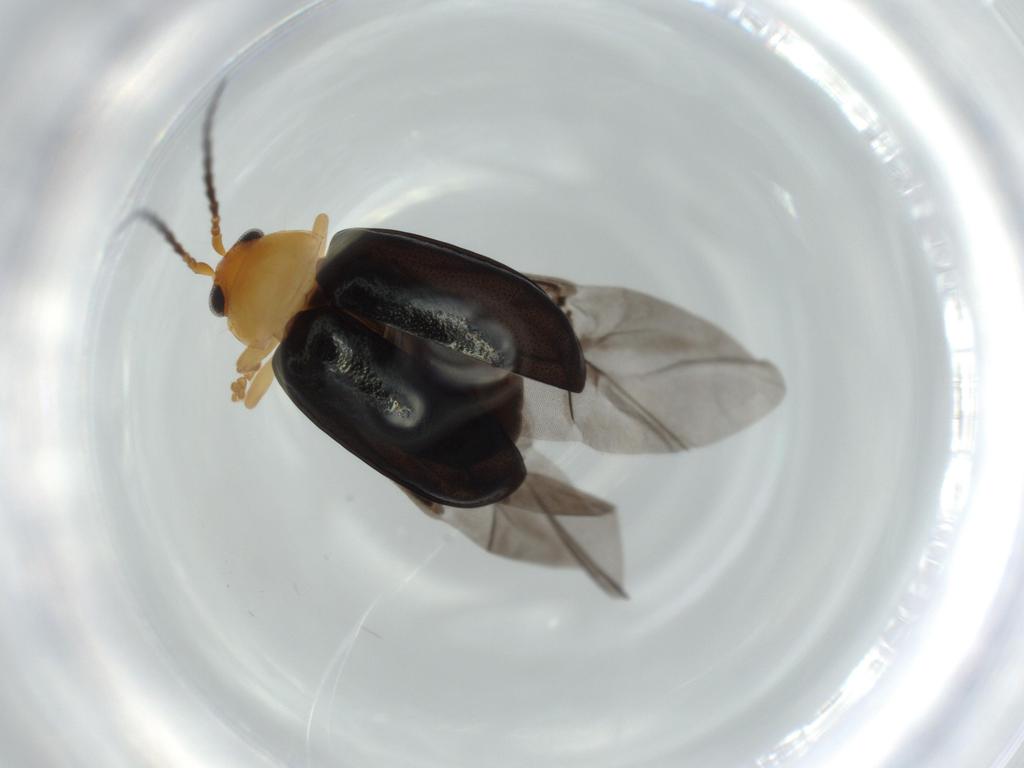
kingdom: Animalia
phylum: Arthropoda
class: Insecta
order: Coleoptera
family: Chrysomelidae
